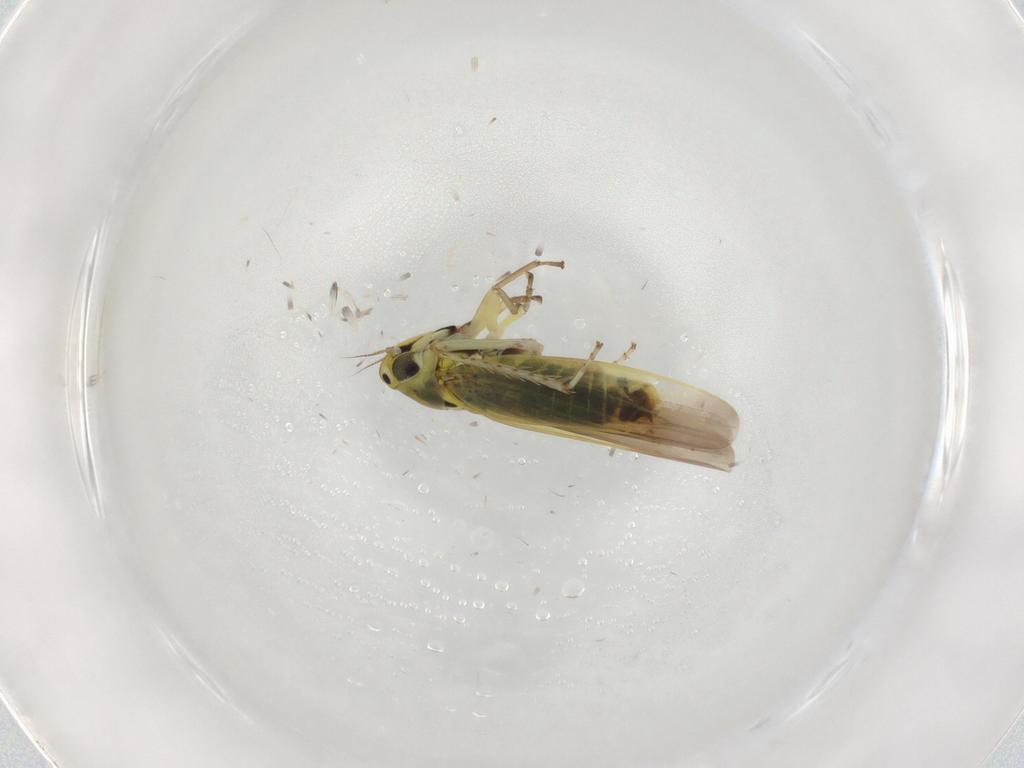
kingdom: Animalia
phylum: Arthropoda
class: Insecta
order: Hemiptera
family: Cicadellidae
